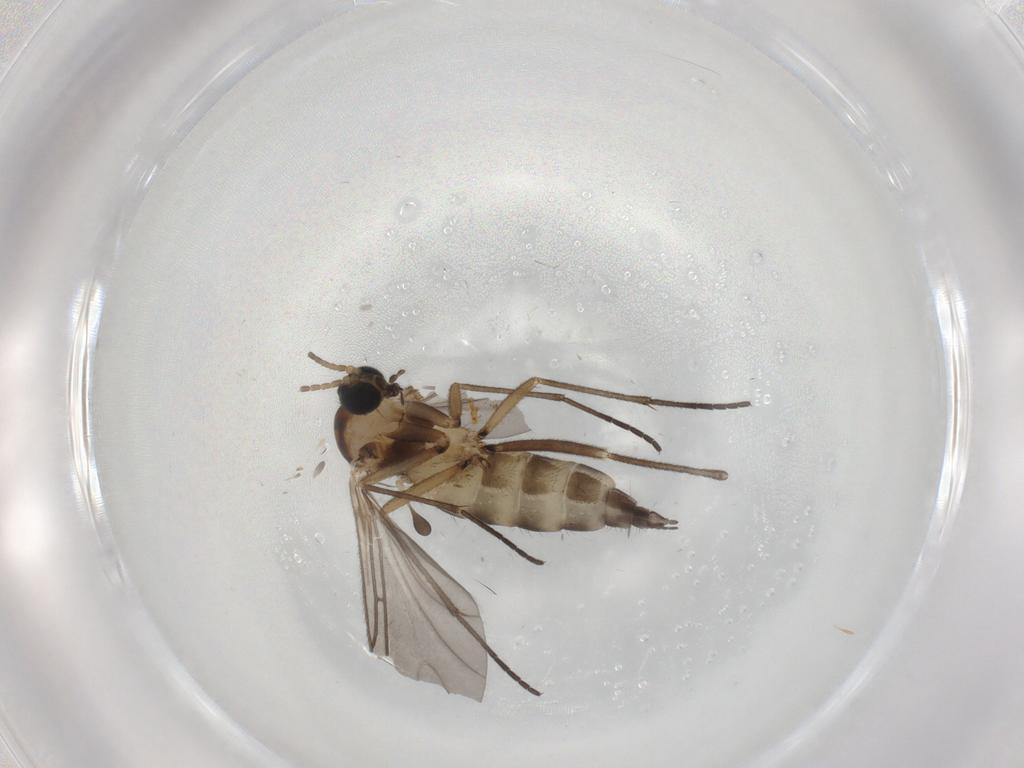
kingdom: Animalia
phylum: Arthropoda
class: Insecta
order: Diptera
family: Sciaridae
